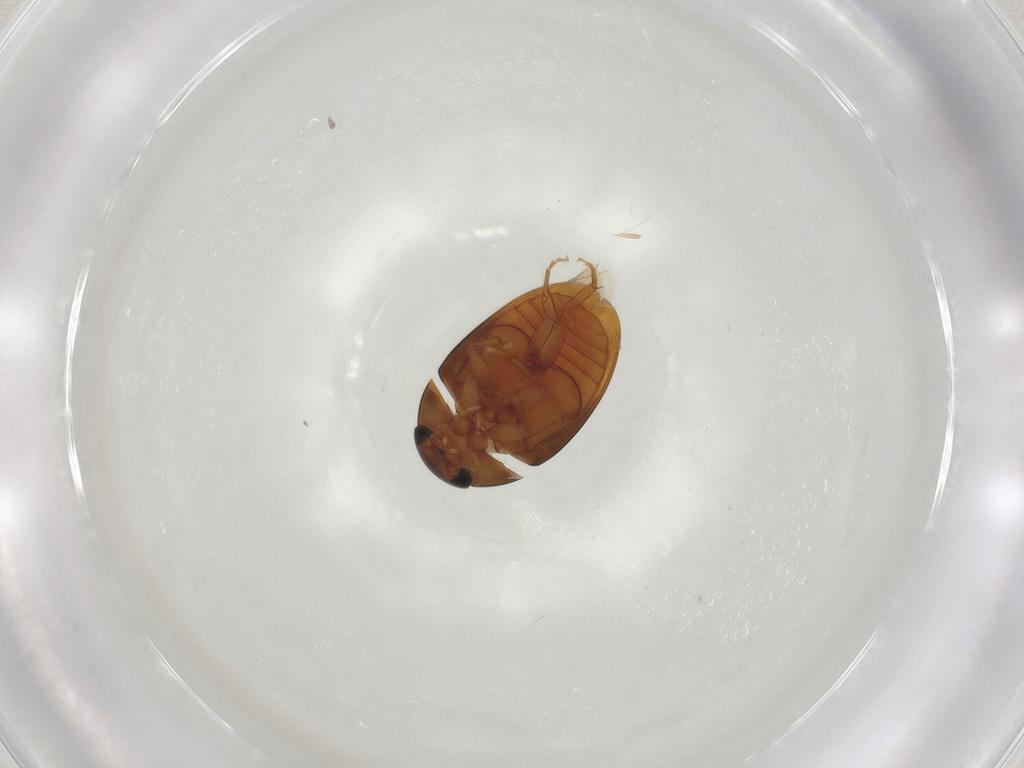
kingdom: Animalia
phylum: Arthropoda
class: Insecta
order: Coleoptera
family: Phalacridae
